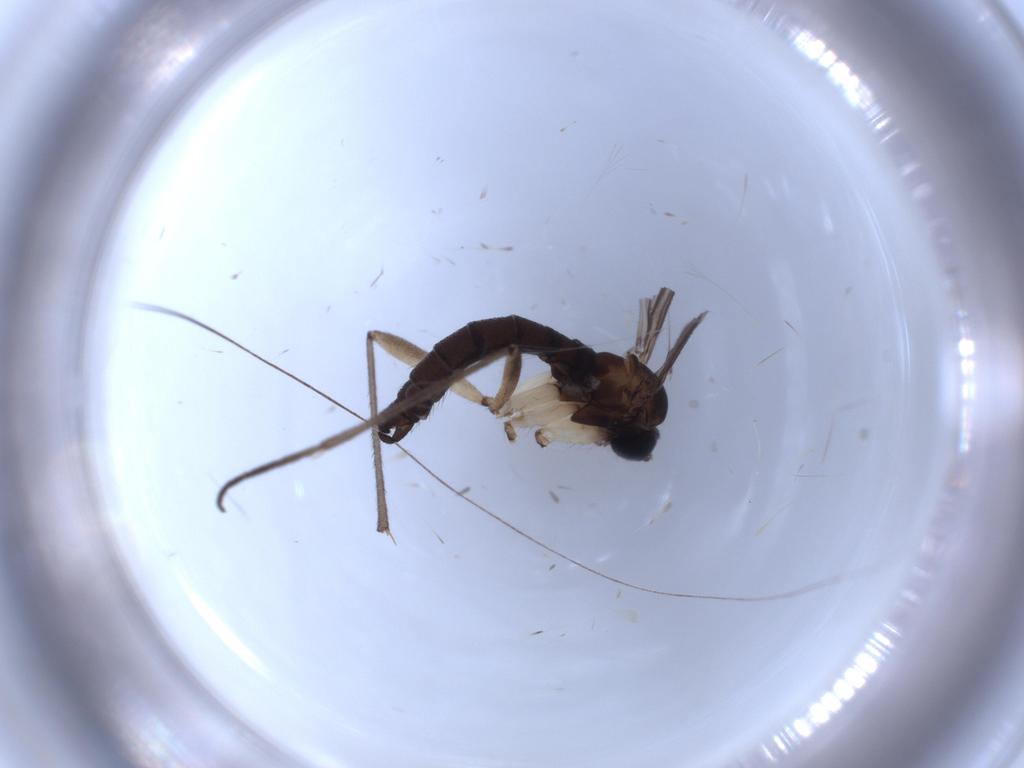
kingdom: Animalia
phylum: Arthropoda
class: Insecta
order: Diptera
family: Sciaridae
